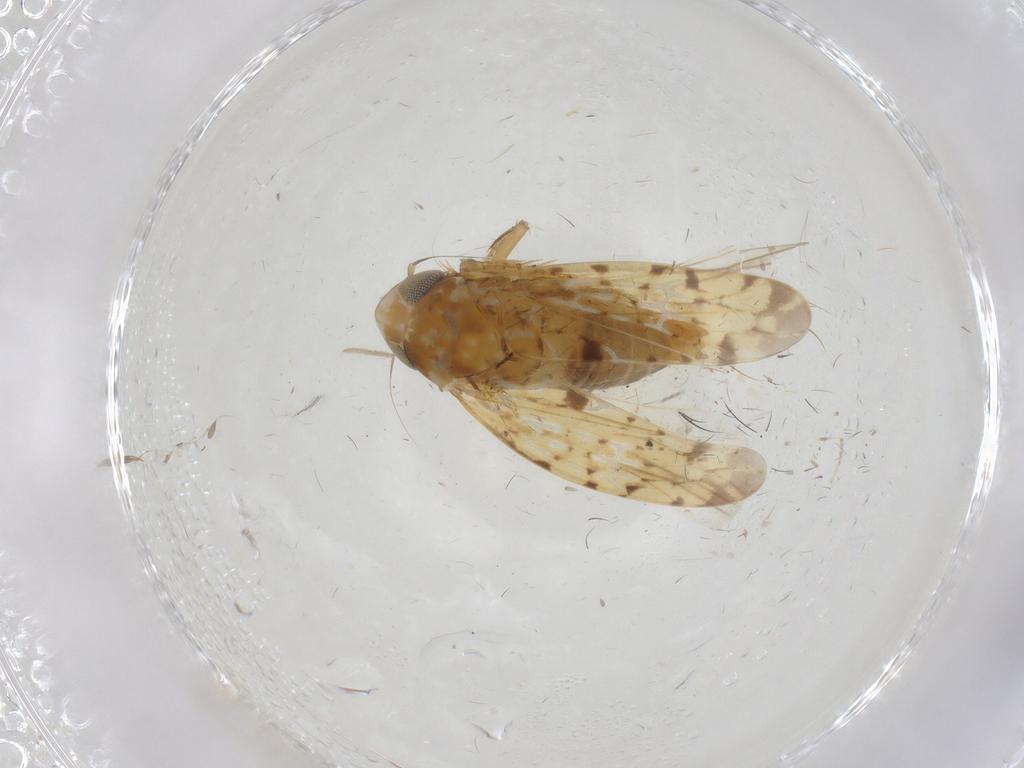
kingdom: Animalia
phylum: Arthropoda
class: Insecta
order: Hemiptera
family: Cicadellidae
